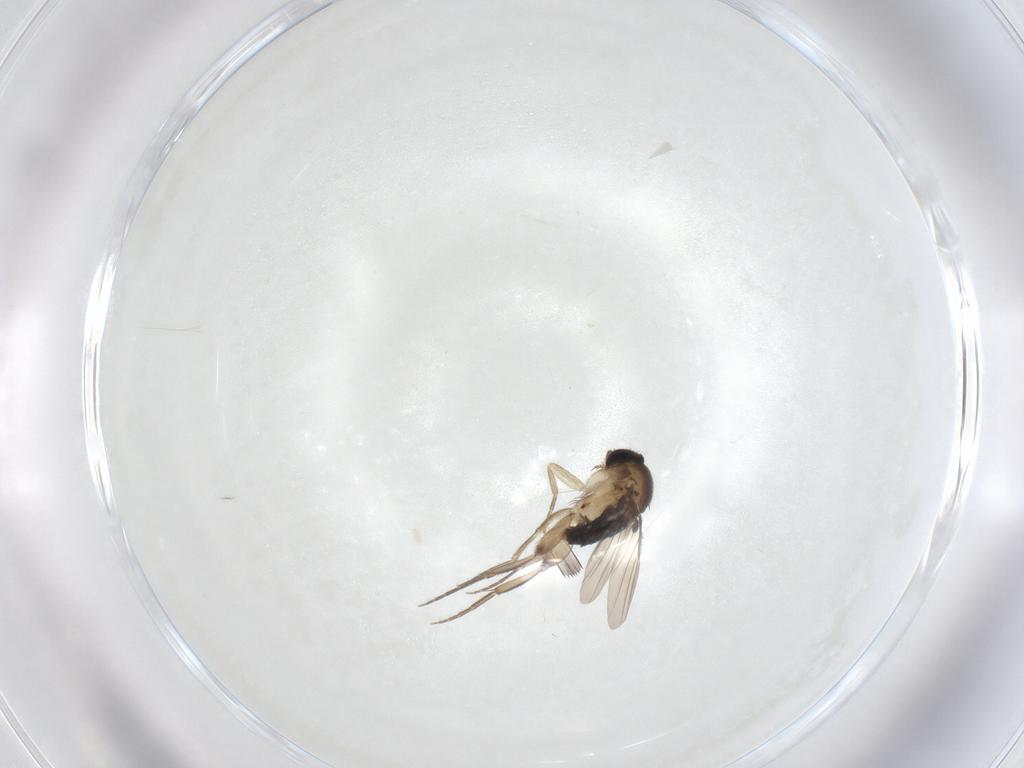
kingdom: Animalia
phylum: Arthropoda
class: Insecta
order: Diptera
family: Phoridae
